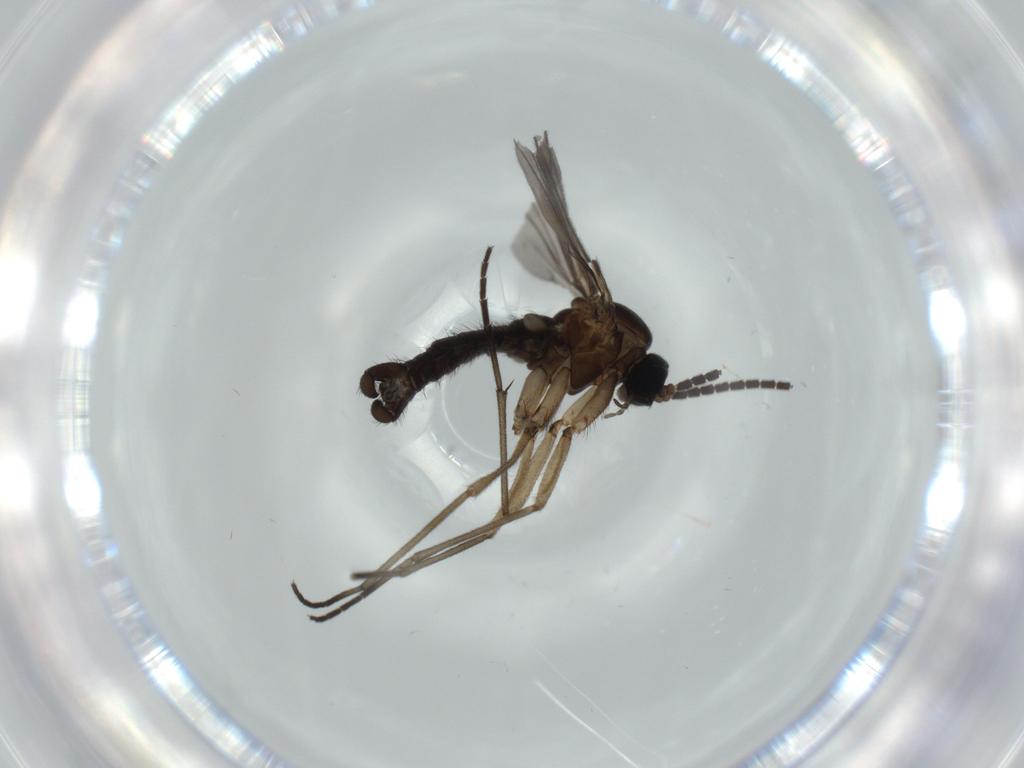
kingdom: Animalia
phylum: Arthropoda
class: Insecta
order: Diptera
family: Sciaridae
